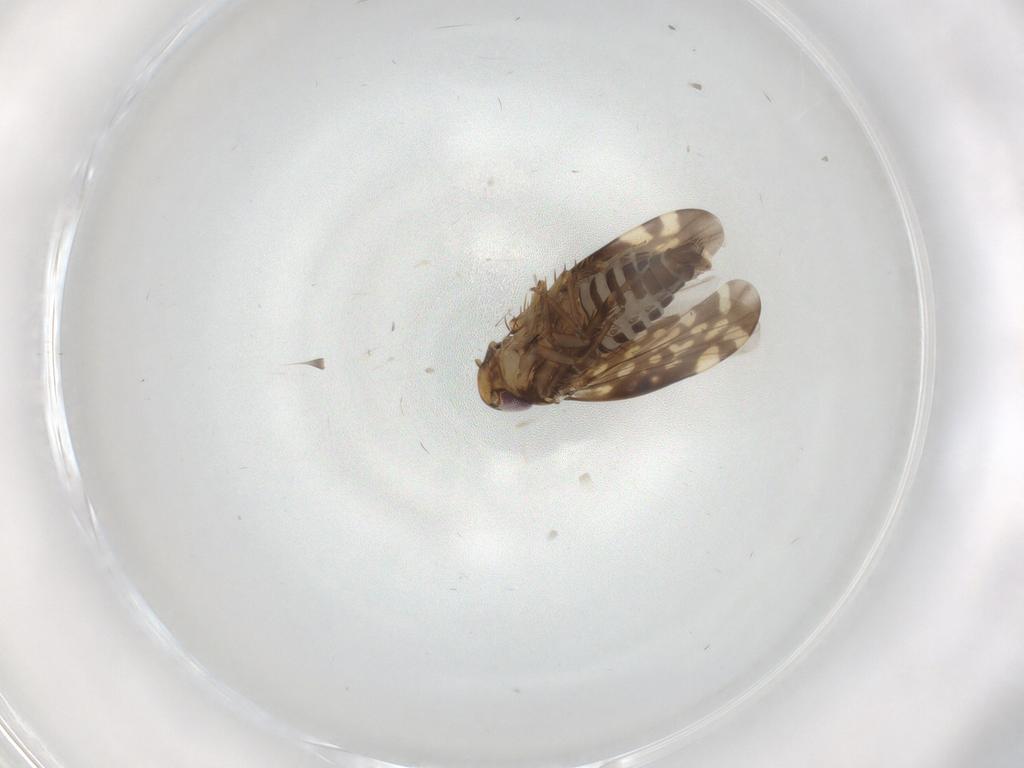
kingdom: Animalia
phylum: Arthropoda
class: Insecta
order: Hemiptera
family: Cicadellidae
